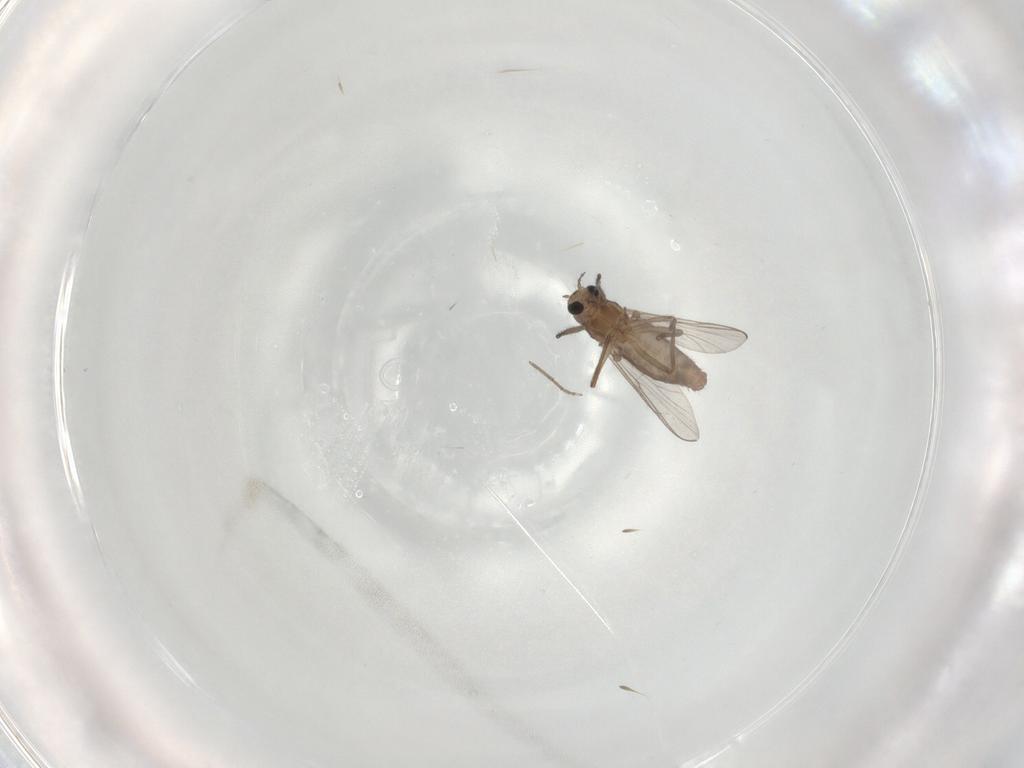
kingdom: Animalia
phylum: Arthropoda
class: Insecta
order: Diptera
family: Chironomidae
